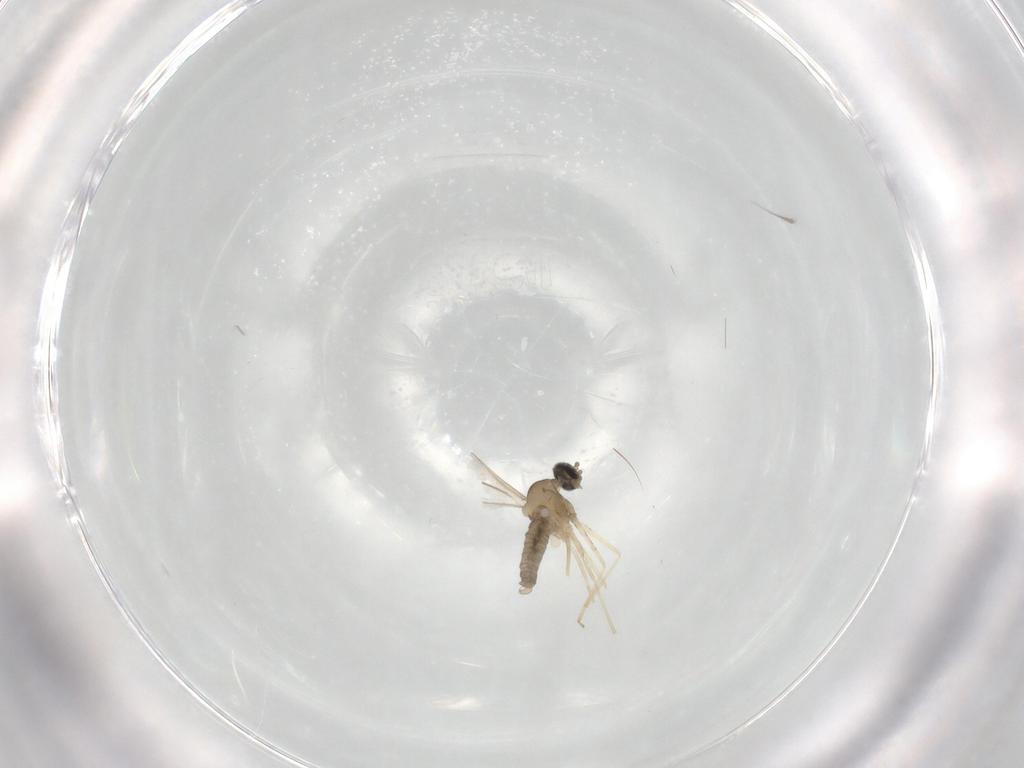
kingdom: Animalia
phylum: Arthropoda
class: Insecta
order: Diptera
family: Cecidomyiidae
